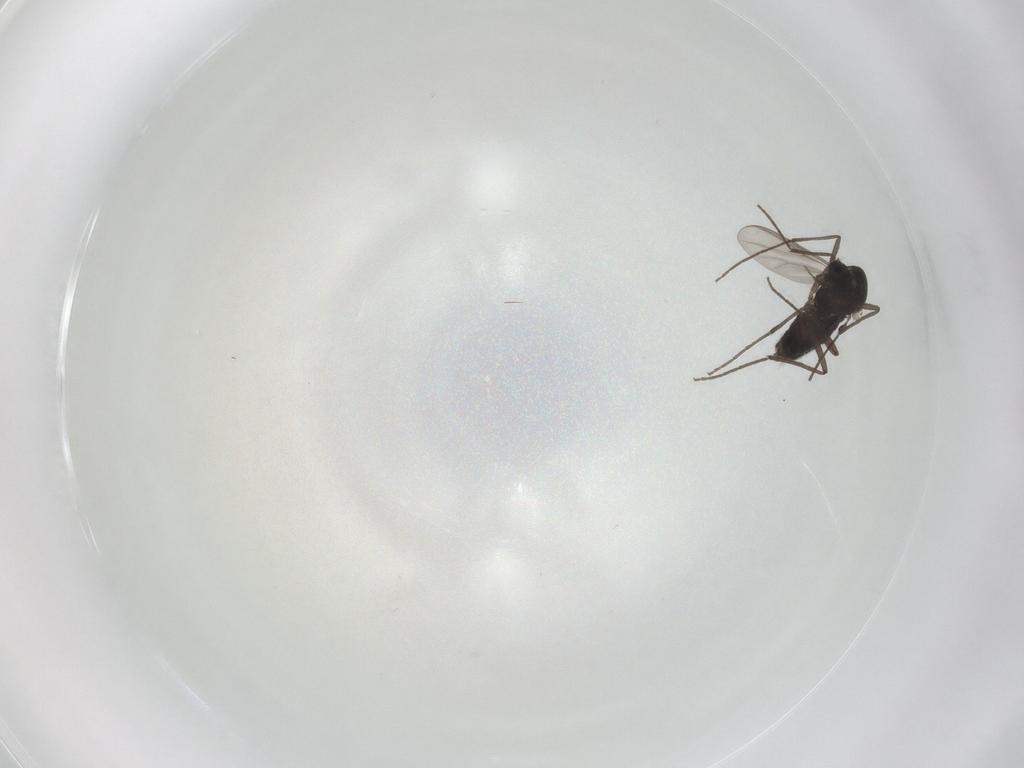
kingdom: Animalia
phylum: Arthropoda
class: Insecta
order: Diptera
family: Chironomidae
